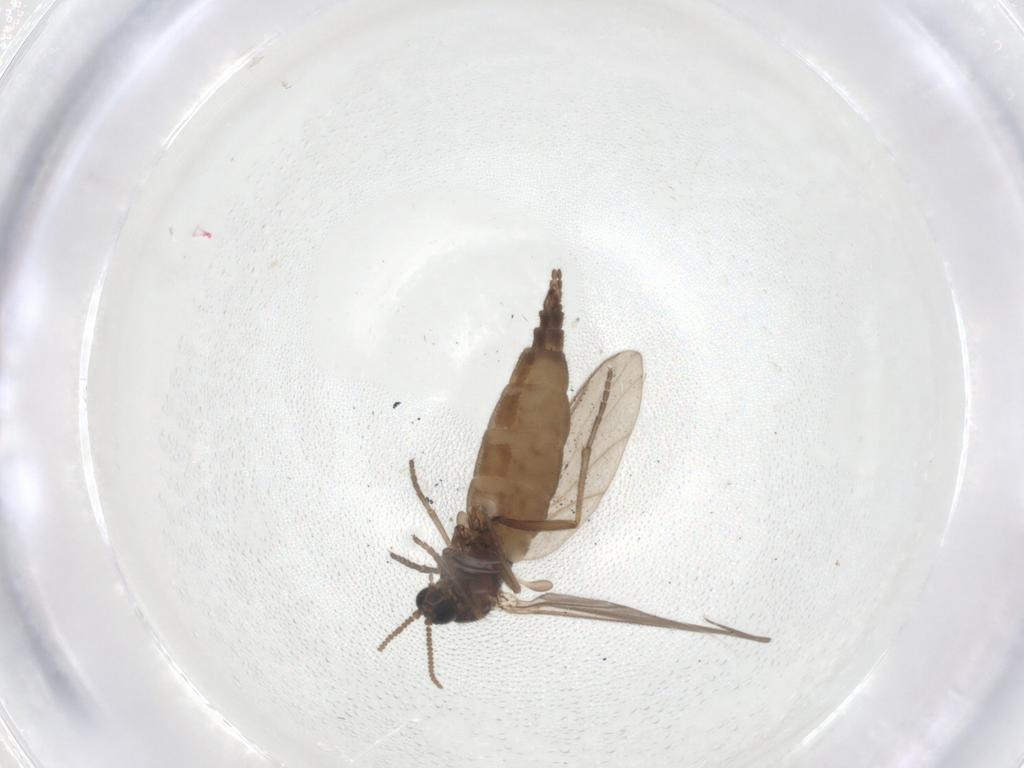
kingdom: Animalia
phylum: Arthropoda
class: Insecta
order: Diptera
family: Sciaridae
